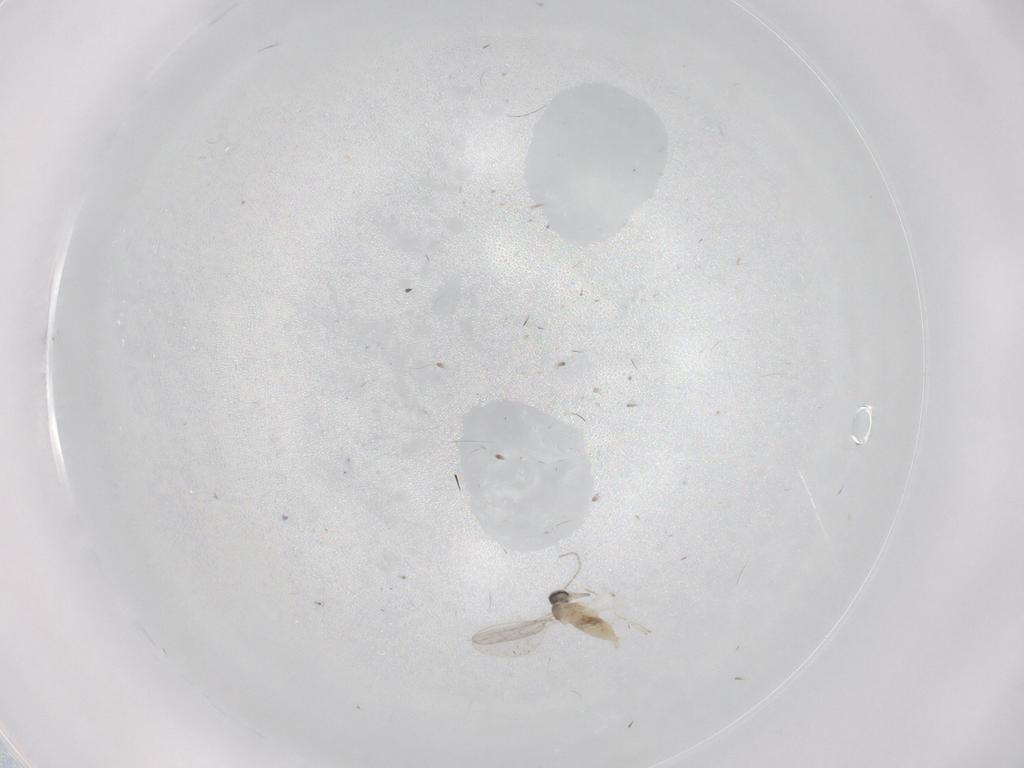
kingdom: Animalia
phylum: Arthropoda
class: Insecta
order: Diptera
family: Cecidomyiidae
